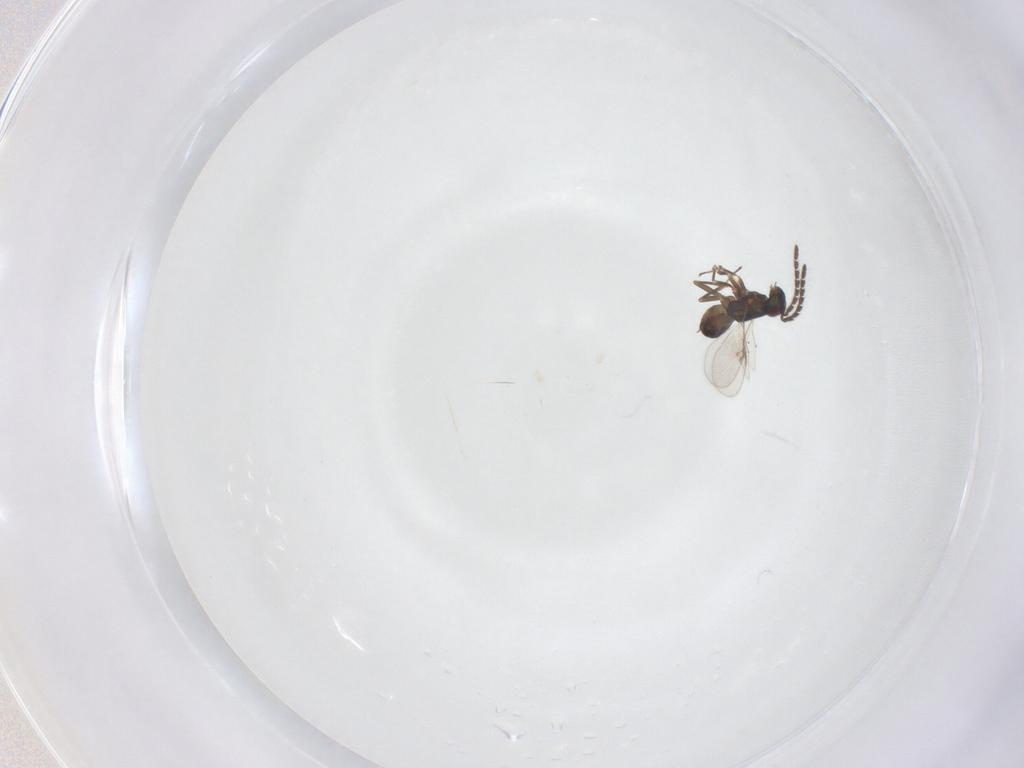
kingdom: Animalia
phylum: Arthropoda
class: Insecta
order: Hymenoptera
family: Encyrtidae
